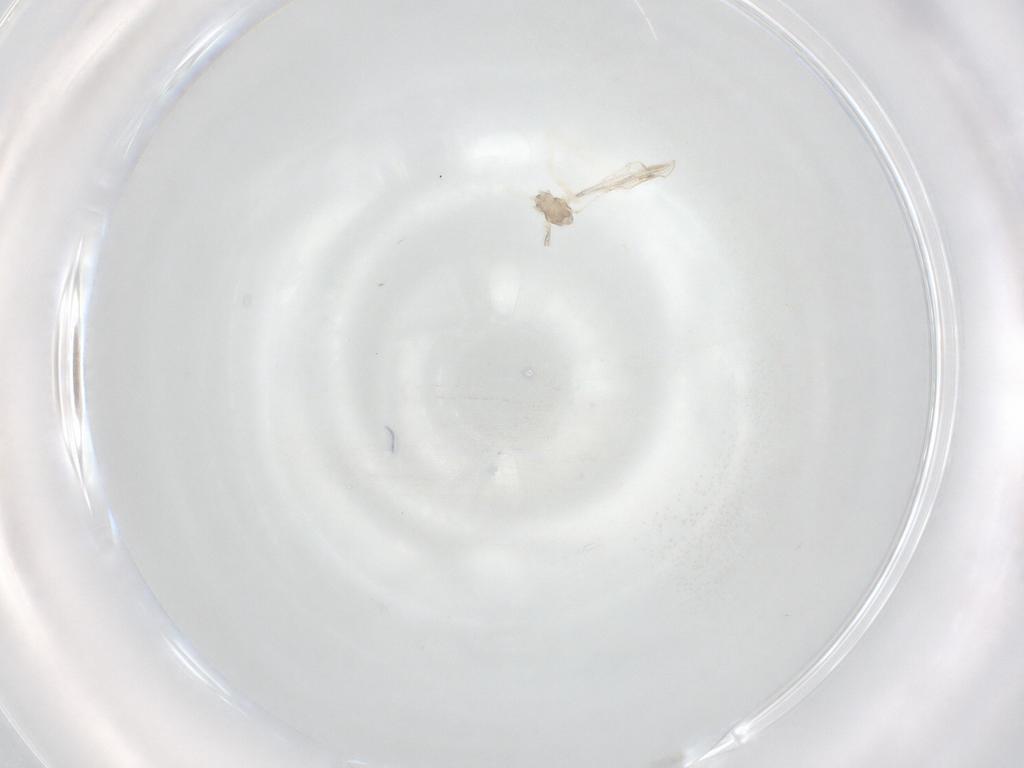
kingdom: Animalia
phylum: Arthropoda
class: Insecta
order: Diptera
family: Cecidomyiidae
